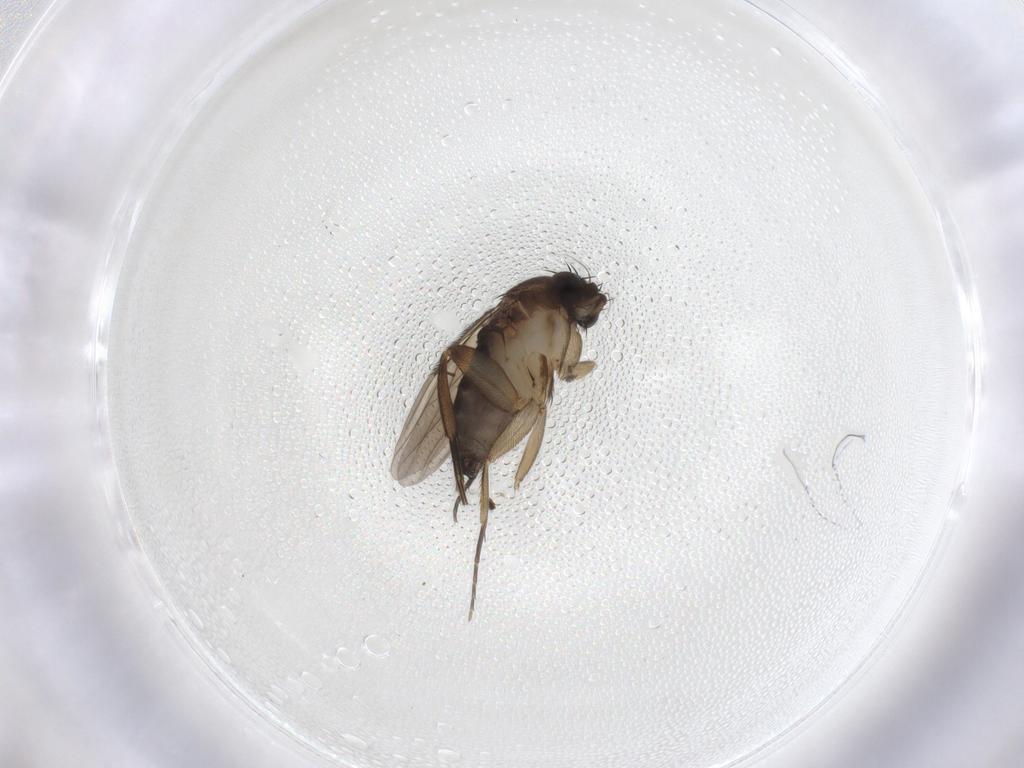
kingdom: Animalia
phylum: Arthropoda
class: Insecta
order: Diptera
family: Phoridae
